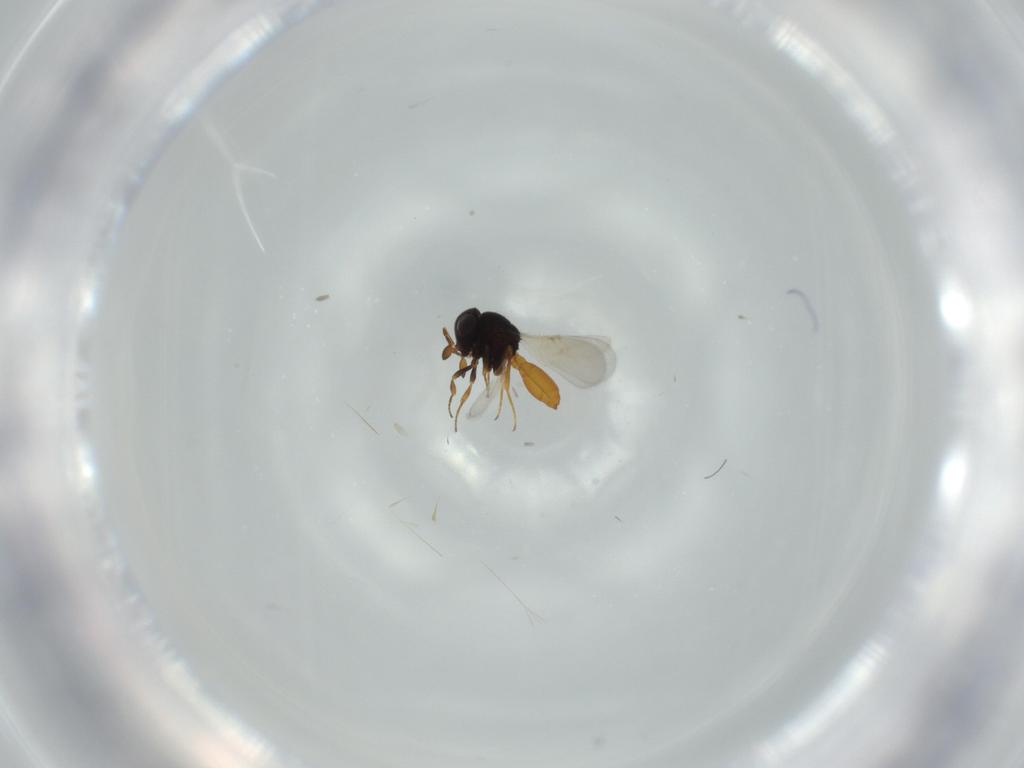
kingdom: Animalia
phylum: Arthropoda
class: Insecta
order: Hymenoptera
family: Scelionidae
